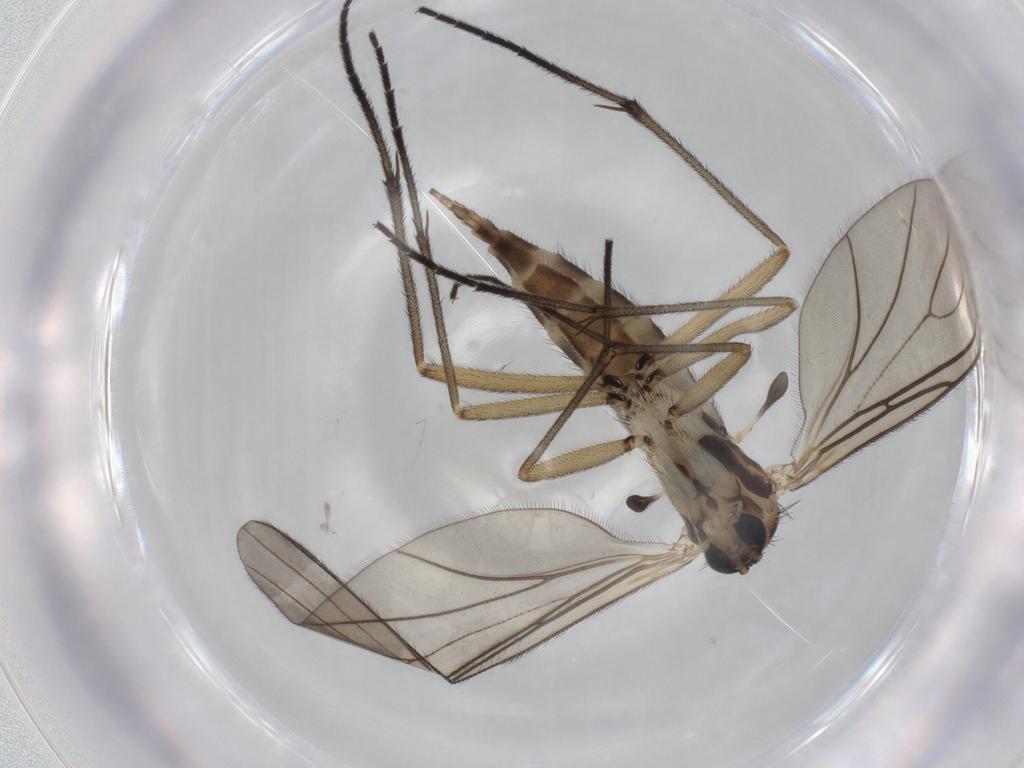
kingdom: Animalia
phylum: Arthropoda
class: Insecta
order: Diptera
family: Sciaridae
